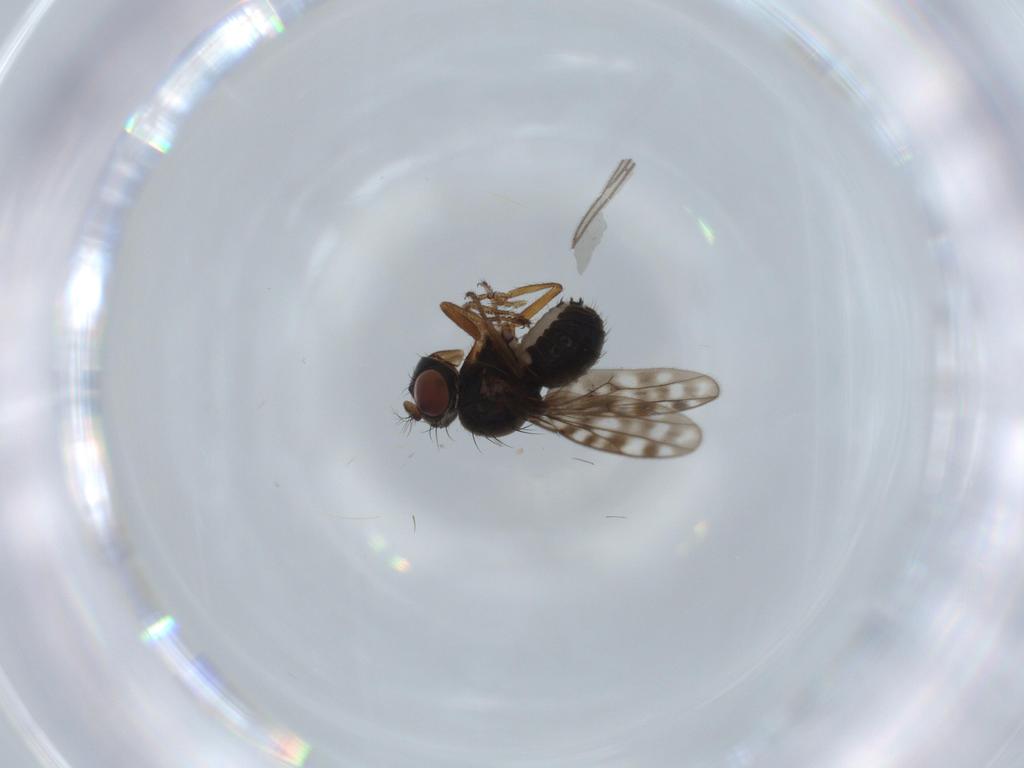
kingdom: Animalia
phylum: Arthropoda
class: Insecta
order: Diptera
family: Ephydridae
